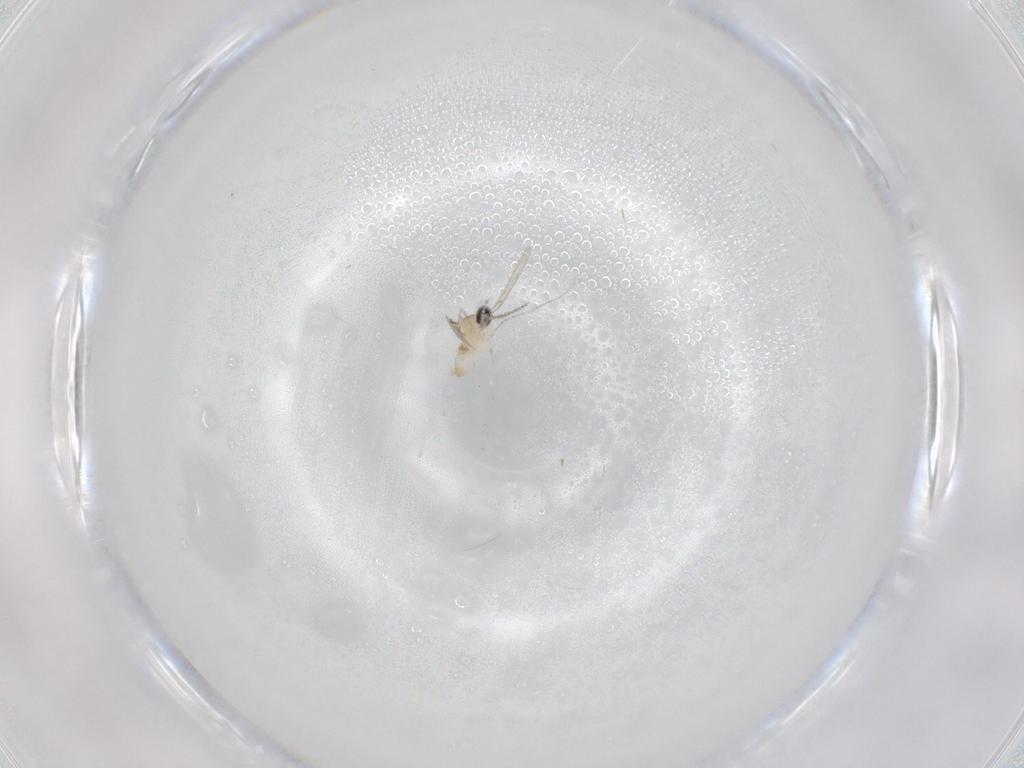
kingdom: Animalia
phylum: Arthropoda
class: Insecta
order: Diptera
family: Cecidomyiidae
